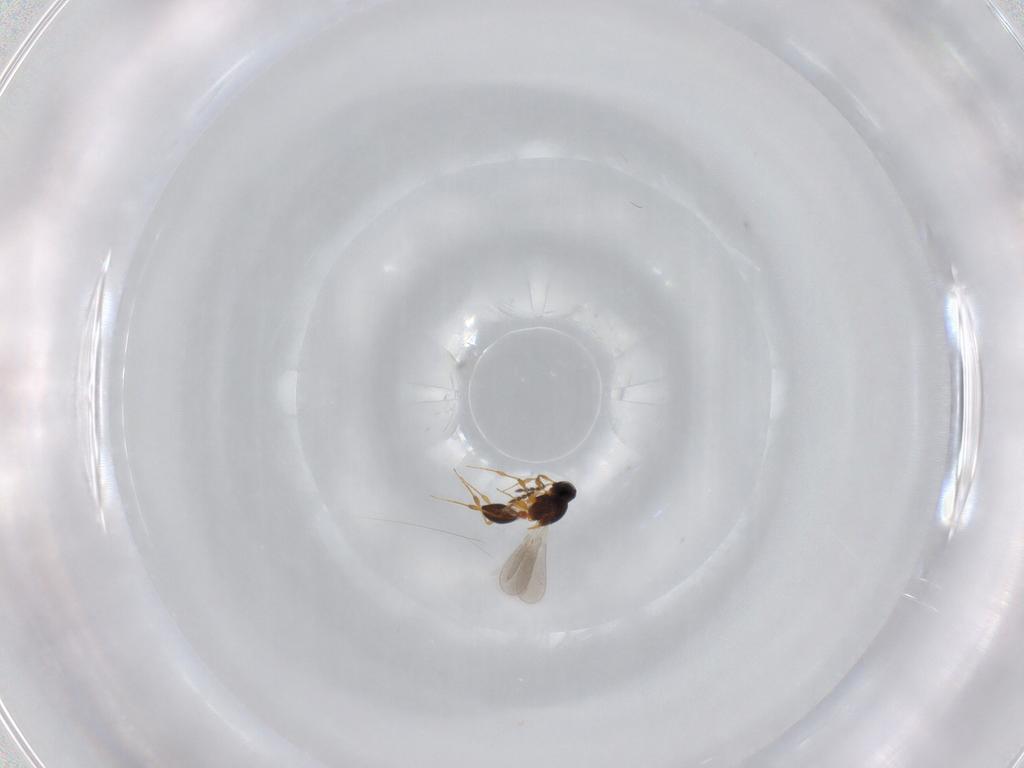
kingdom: Animalia
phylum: Arthropoda
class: Insecta
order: Hymenoptera
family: Platygastridae
